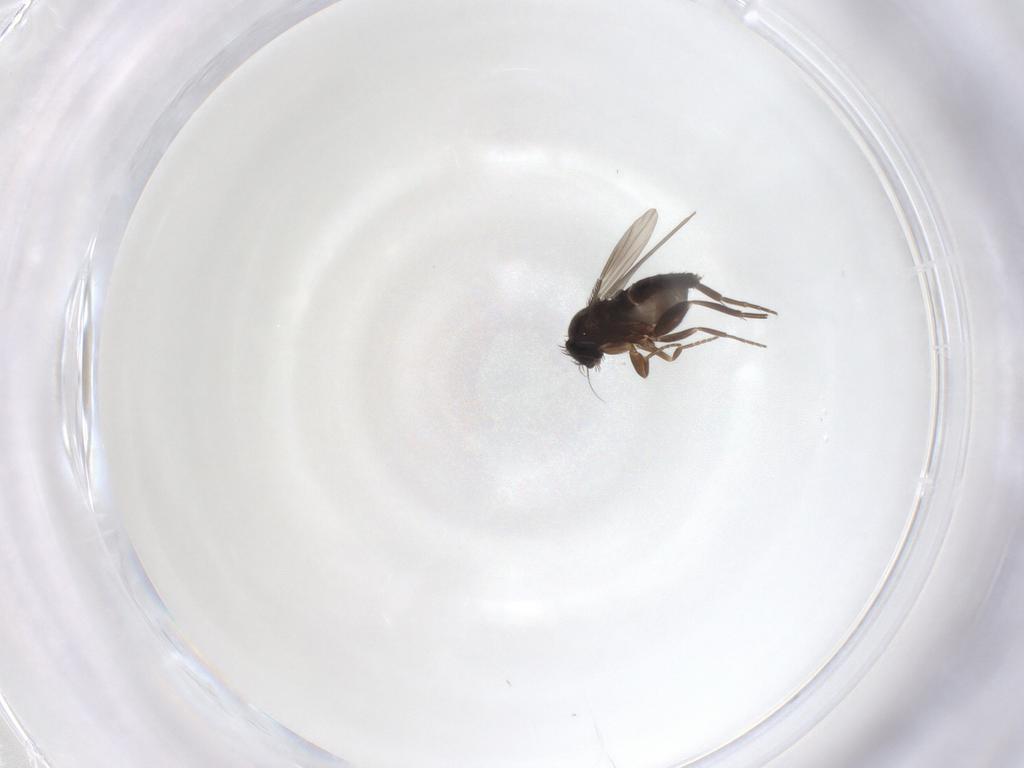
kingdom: Animalia
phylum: Arthropoda
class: Insecta
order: Diptera
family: Phoridae
